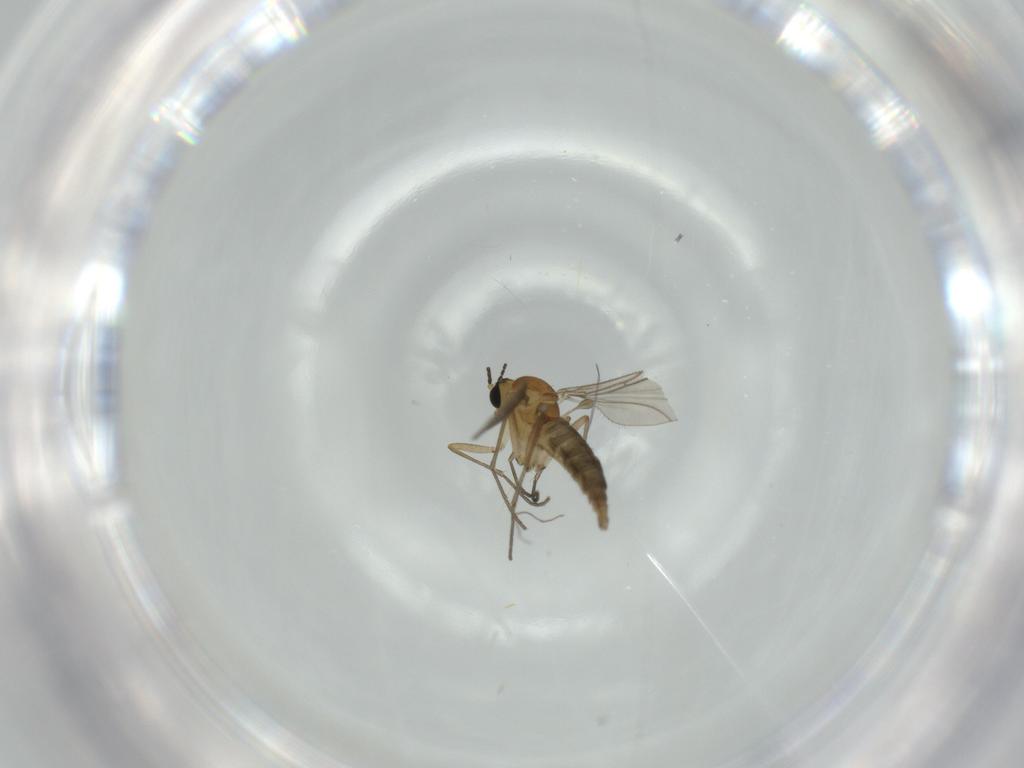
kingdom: Animalia
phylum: Arthropoda
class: Insecta
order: Diptera
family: Sciaridae
